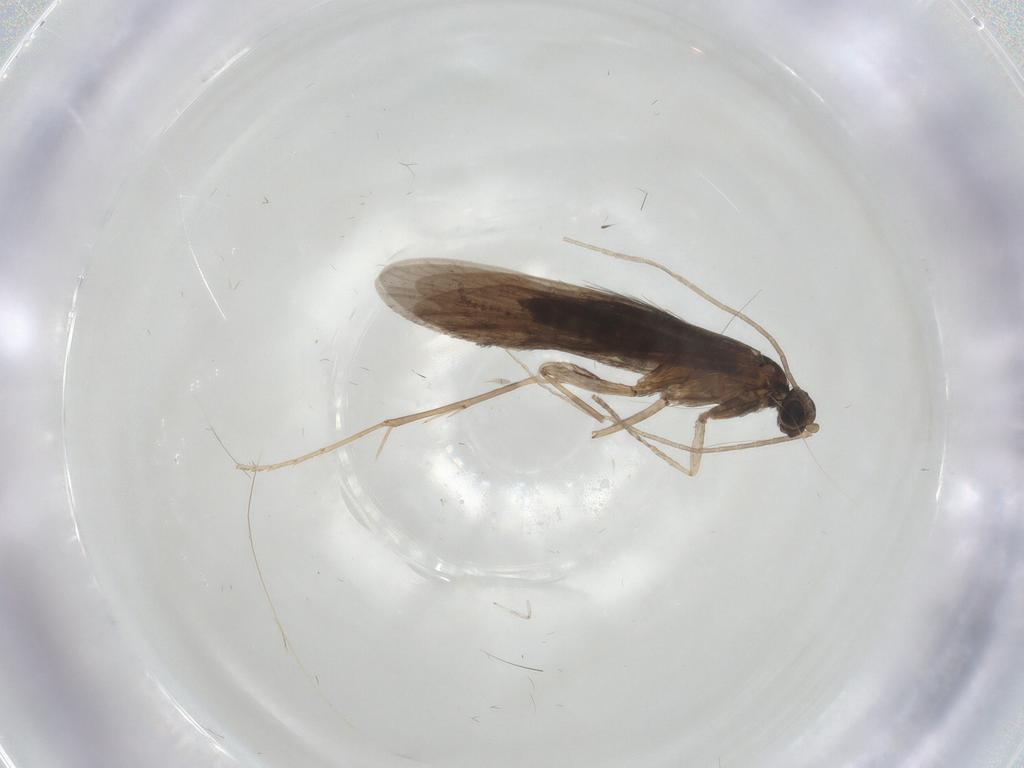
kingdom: Animalia
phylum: Arthropoda
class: Insecta
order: Trichoptera
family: Xiphocentronidae
